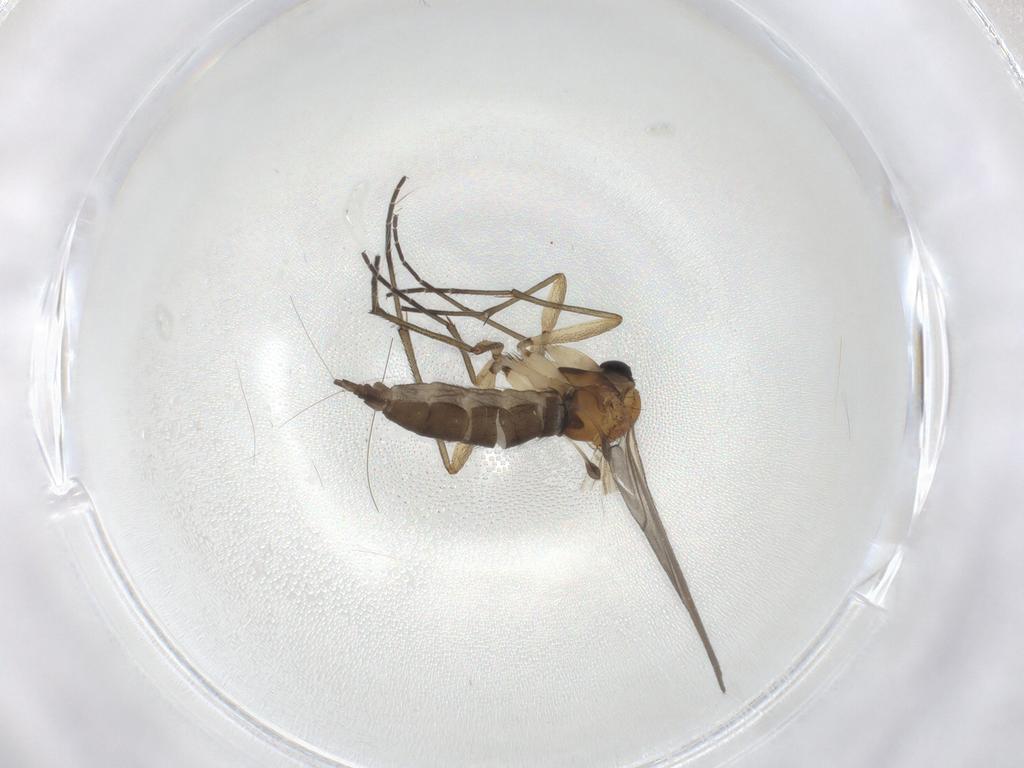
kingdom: Animalia
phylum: Arthropoda
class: Insecta
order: Diptera
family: Sciaridae
